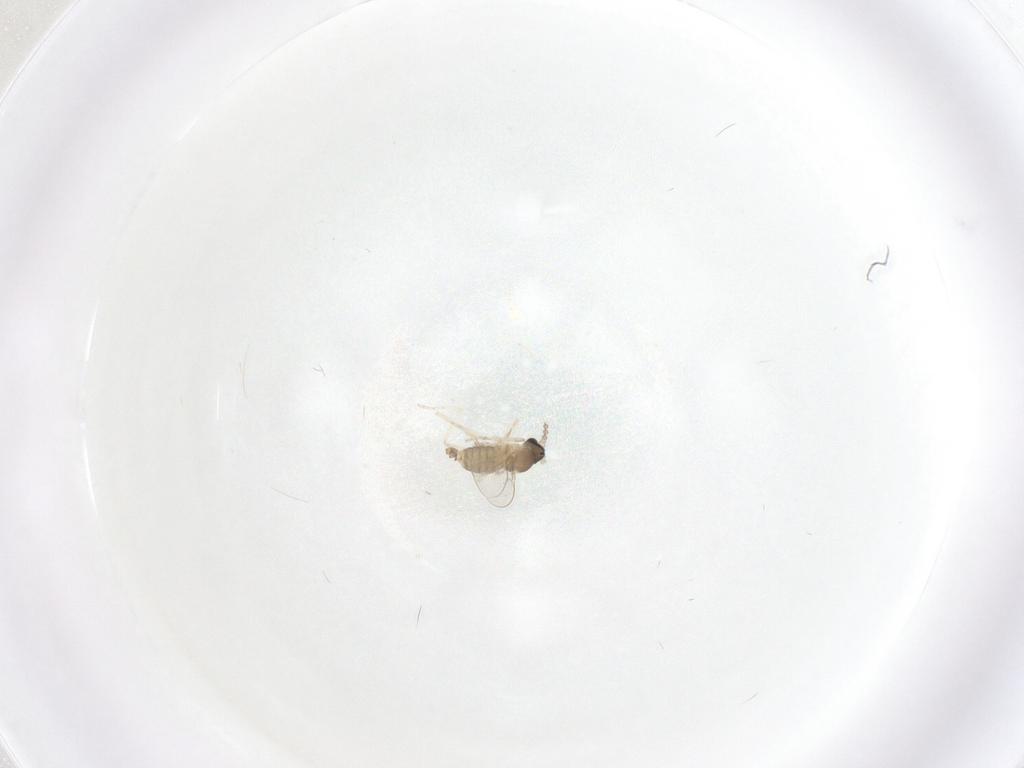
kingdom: Animalia
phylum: Arthropoda
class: Insecta
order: Diptera
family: Cecidomyiidae
